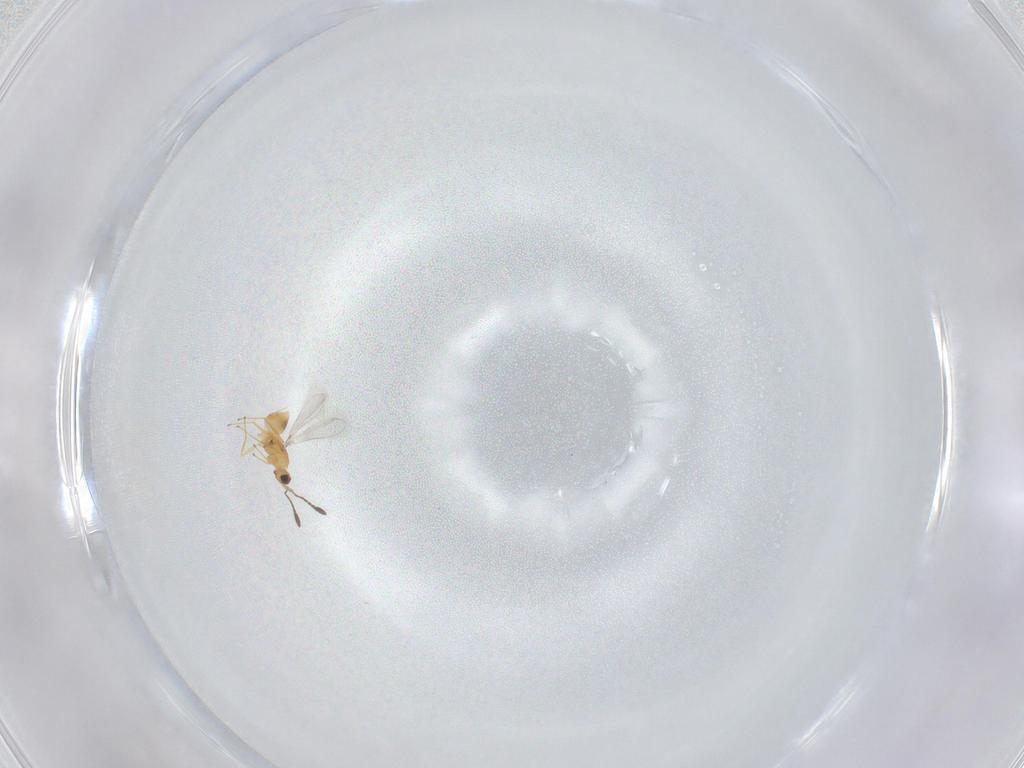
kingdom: Animalia
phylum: Arthropoda
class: Insecta
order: Hymenoptera
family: Mymaridae
